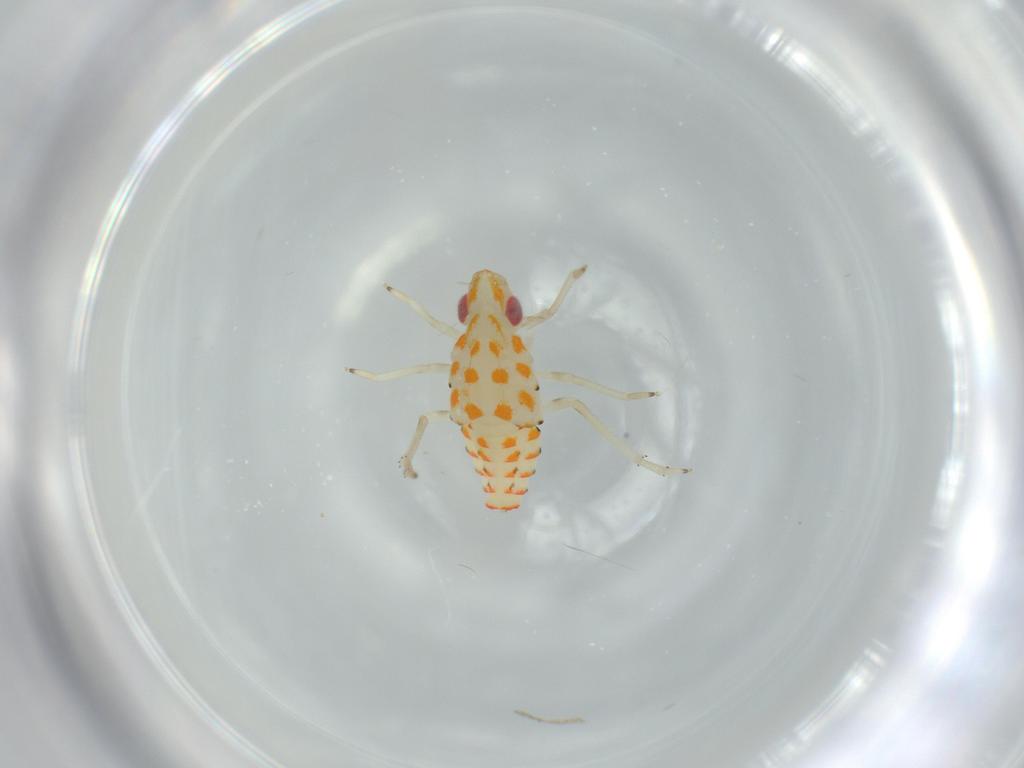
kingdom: Animalia
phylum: Arthropoda
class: Insecta
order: Hemiptera
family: Tropiduchidae
